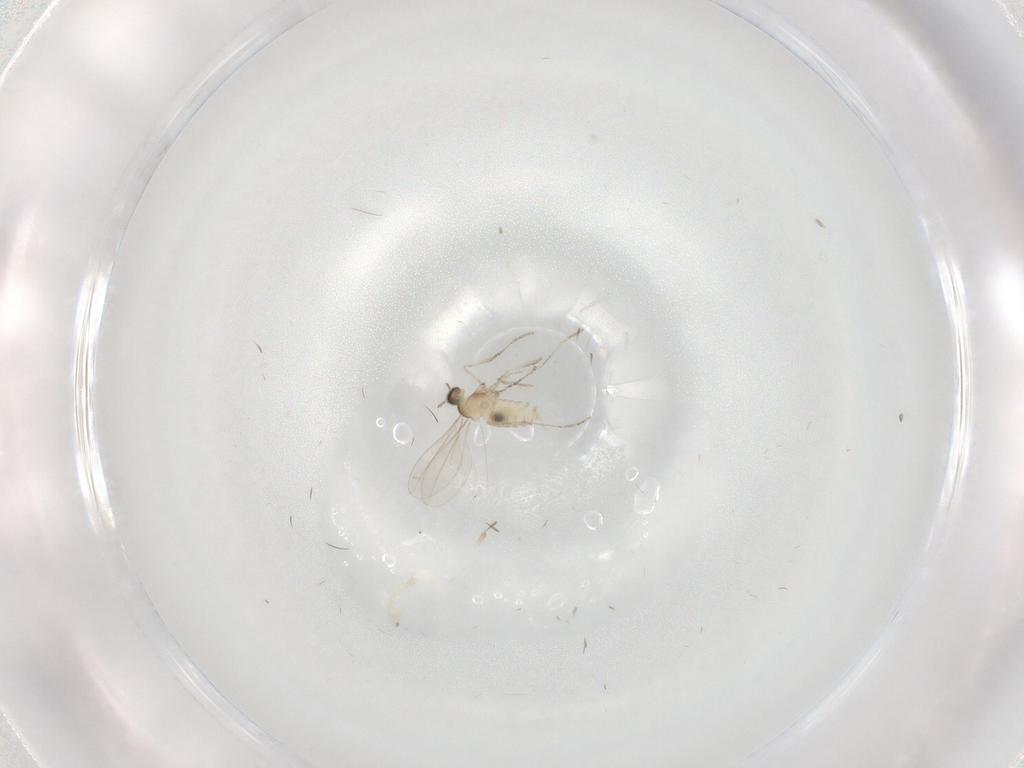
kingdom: Animalia
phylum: Arthropoda
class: Insecta
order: Diptera
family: Cecidomyiidae
